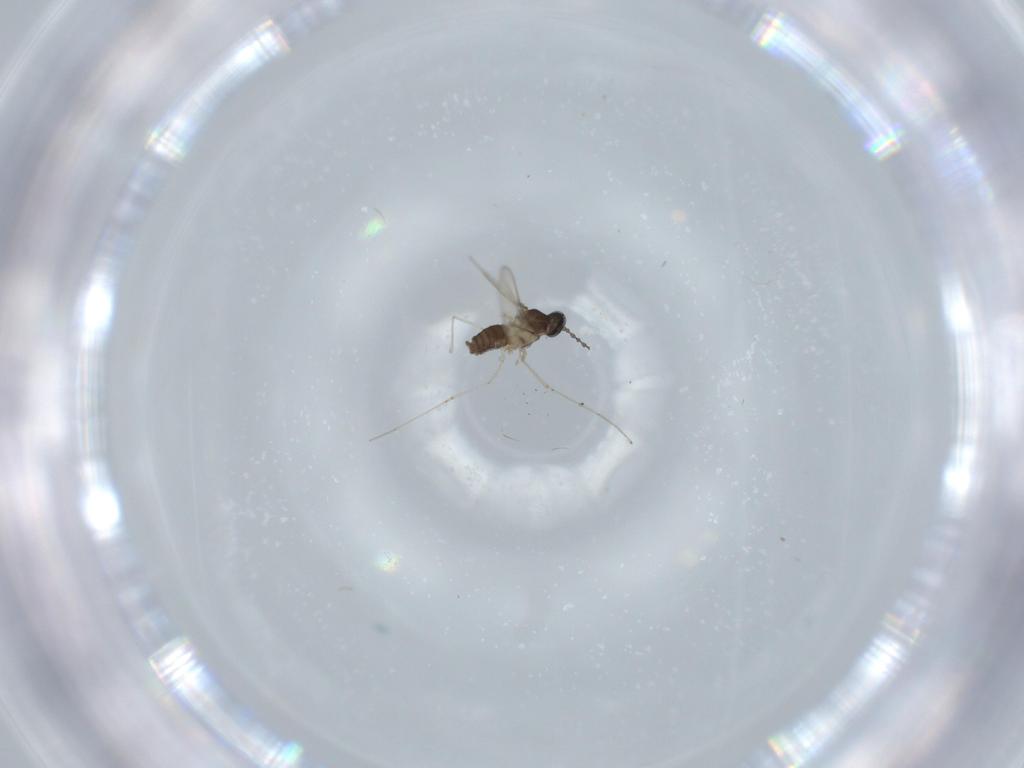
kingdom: Animalia
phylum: Arthropoda
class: Insecta
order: Diptera
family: Cecidomyiidae
